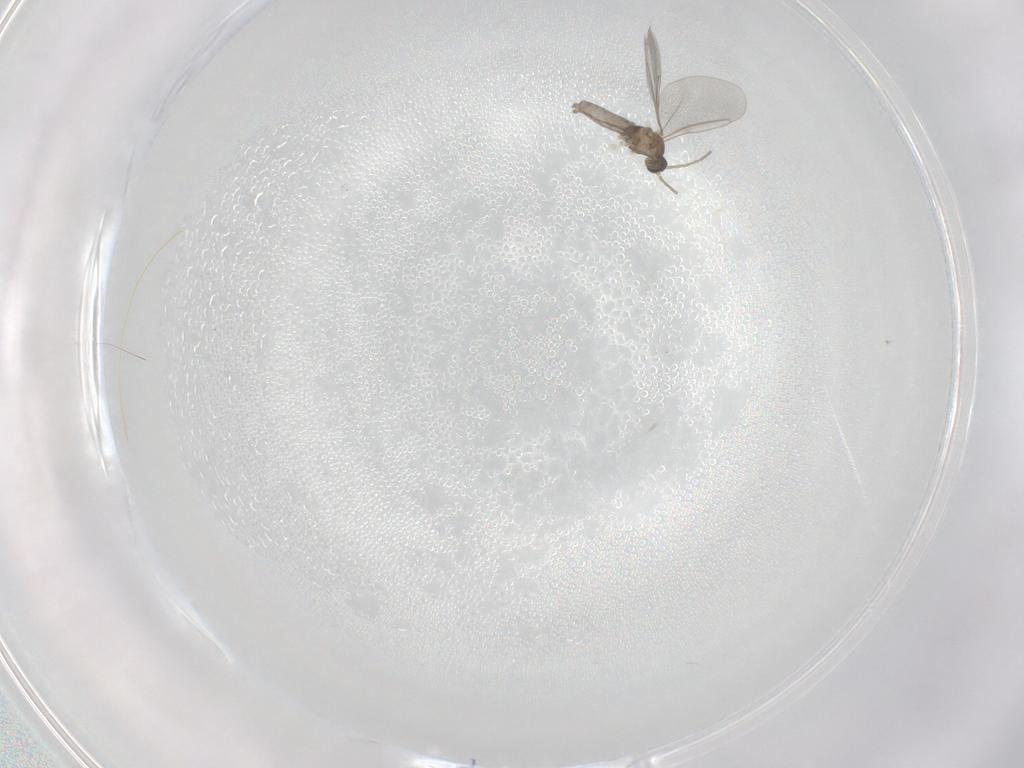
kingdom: Animalia
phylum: Arthropoda
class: Insecta
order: Diptera
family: Cecidomyiidae
